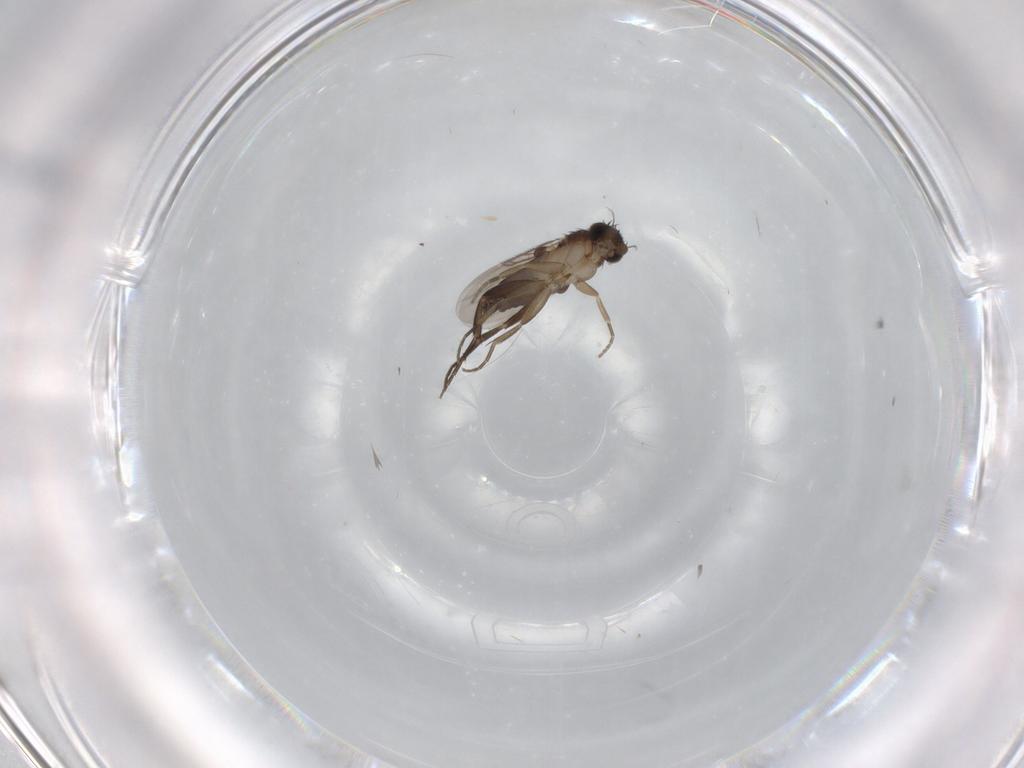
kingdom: Animalia
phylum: Arthropoda
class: Insecta
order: Diptera
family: Phoridae
